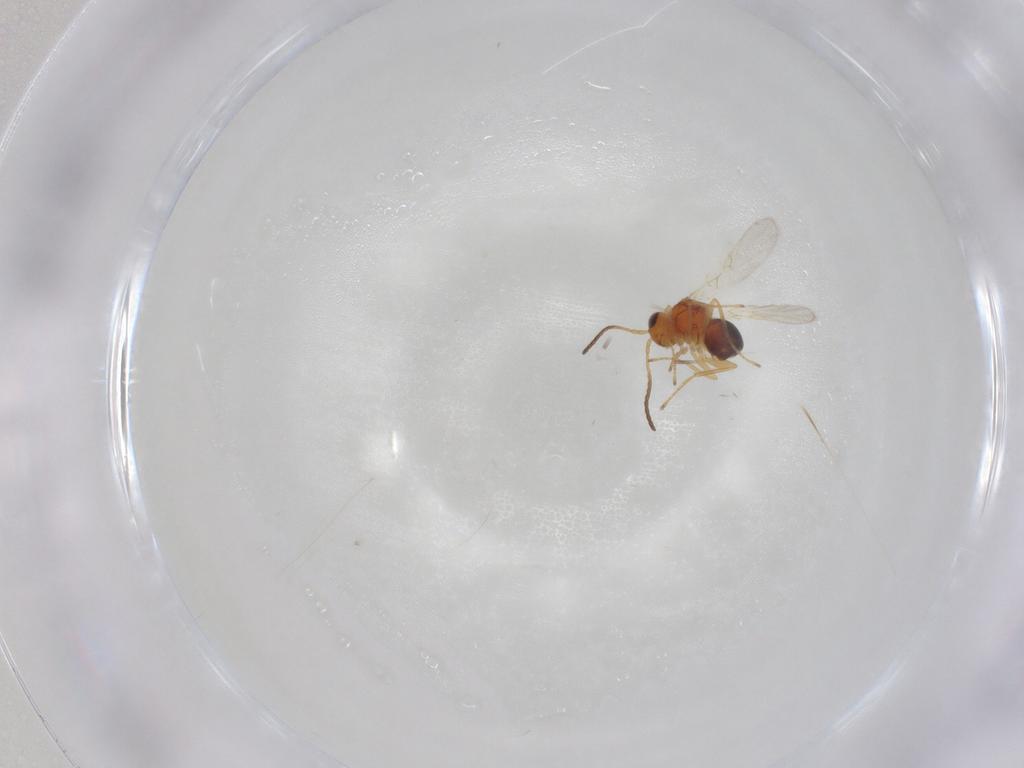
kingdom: Animalia
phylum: Arthropoda
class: Insecta
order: Hymenoptera
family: Figitidae
